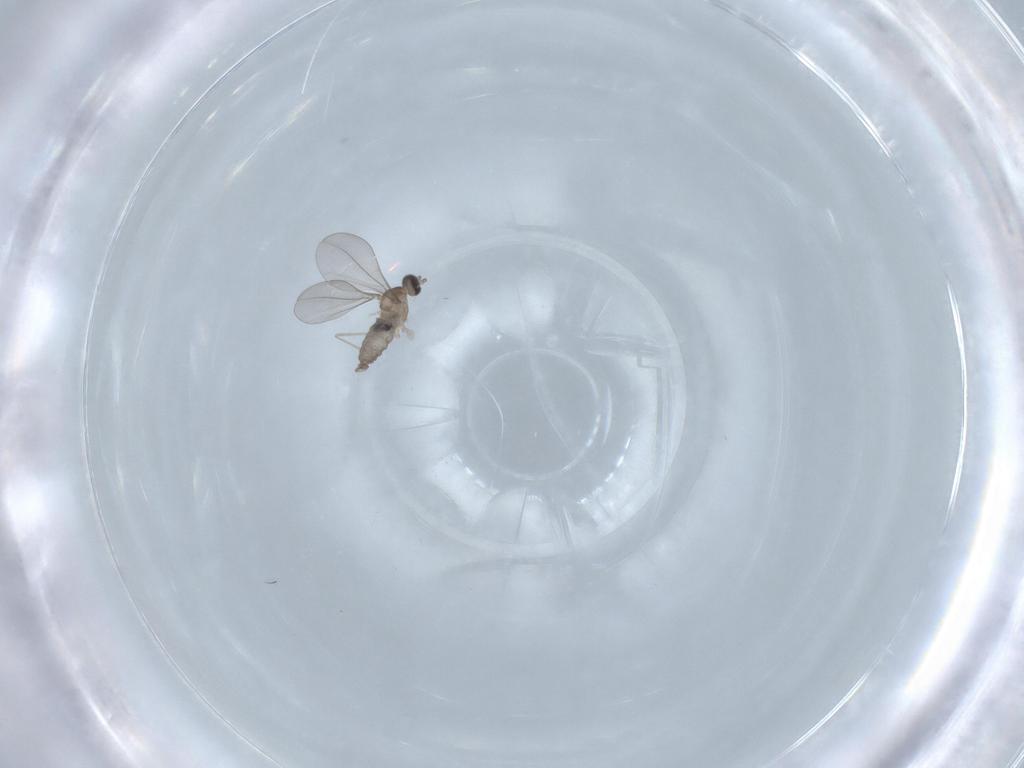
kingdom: Animalia
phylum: Arthropoda
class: Insecta
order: Diptera
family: Cecidomyiidae
